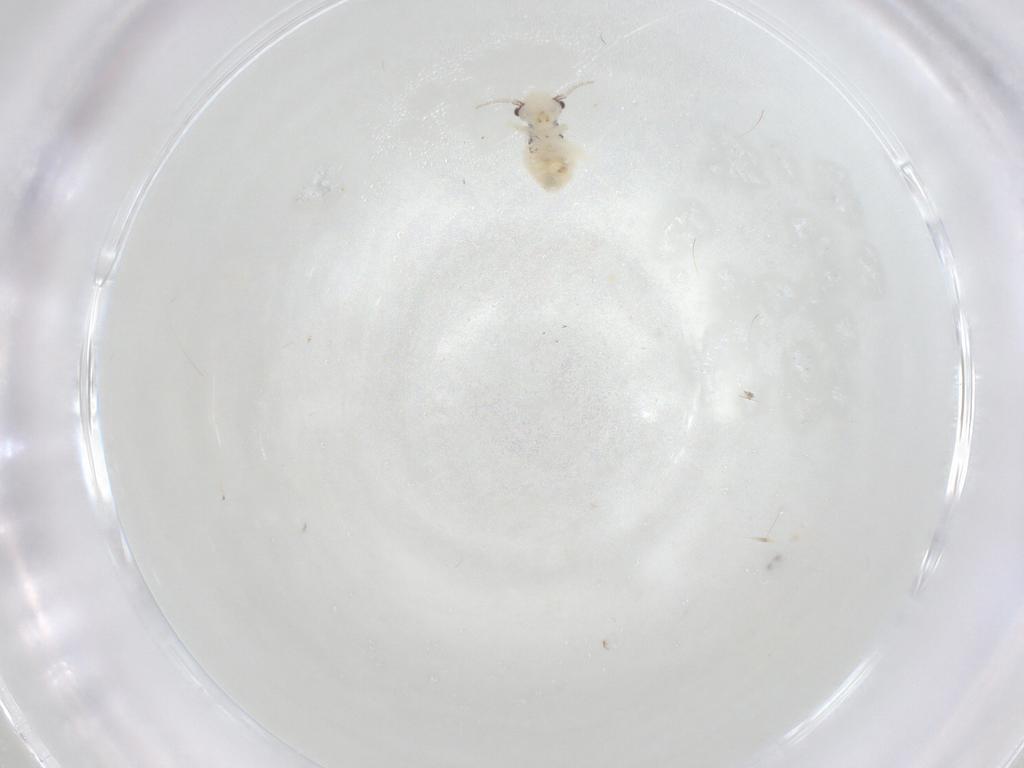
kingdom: Animalia
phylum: Arthropoda
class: Insecta
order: Psocodea
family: Philotarsidae
